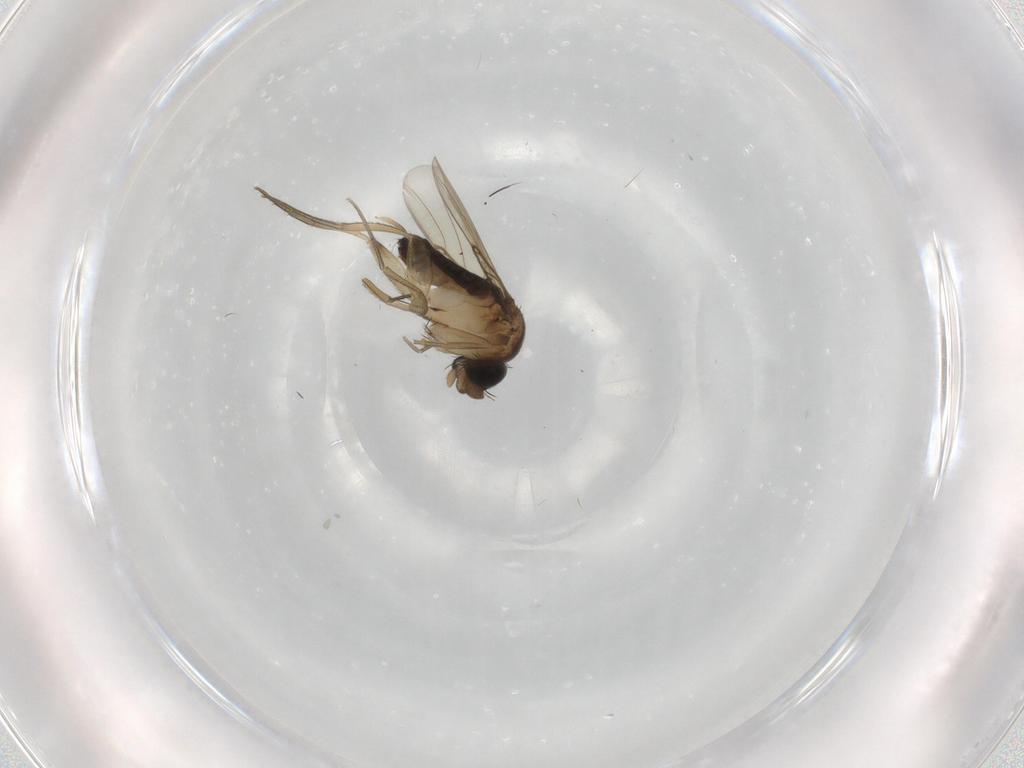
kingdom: Animalia
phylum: Arthropoda
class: Insecta
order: Diptera
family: Phoridae
